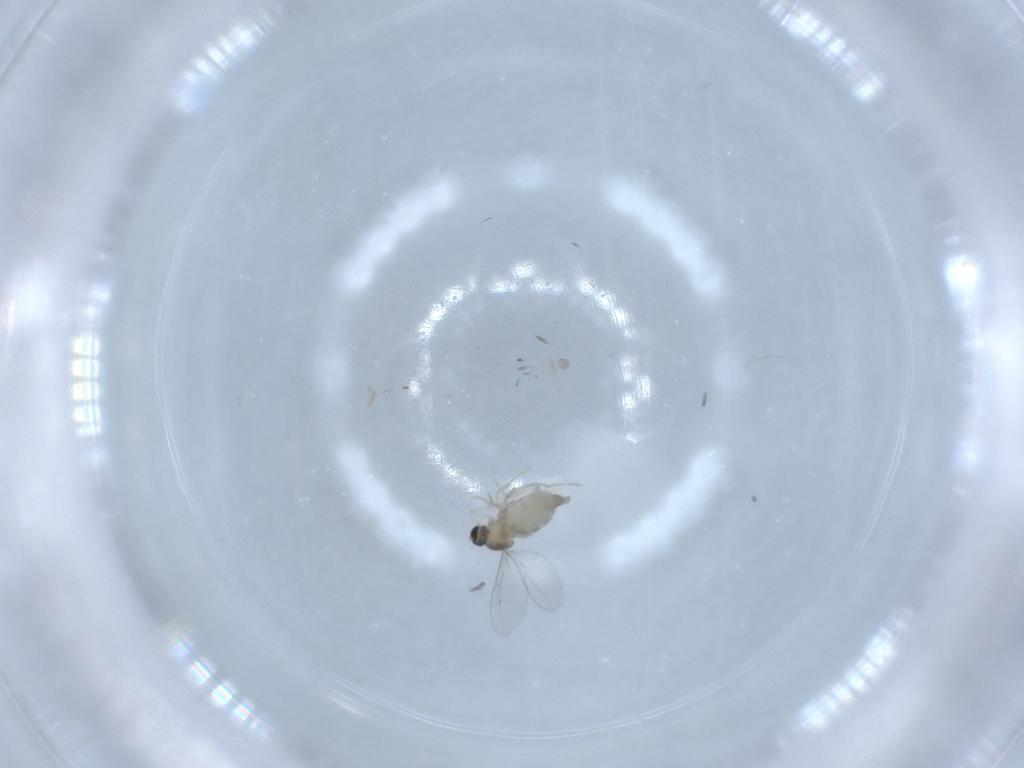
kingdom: Animalia
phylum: Arthropoda
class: Insecta
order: Diptera
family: Cecidomyiidae
